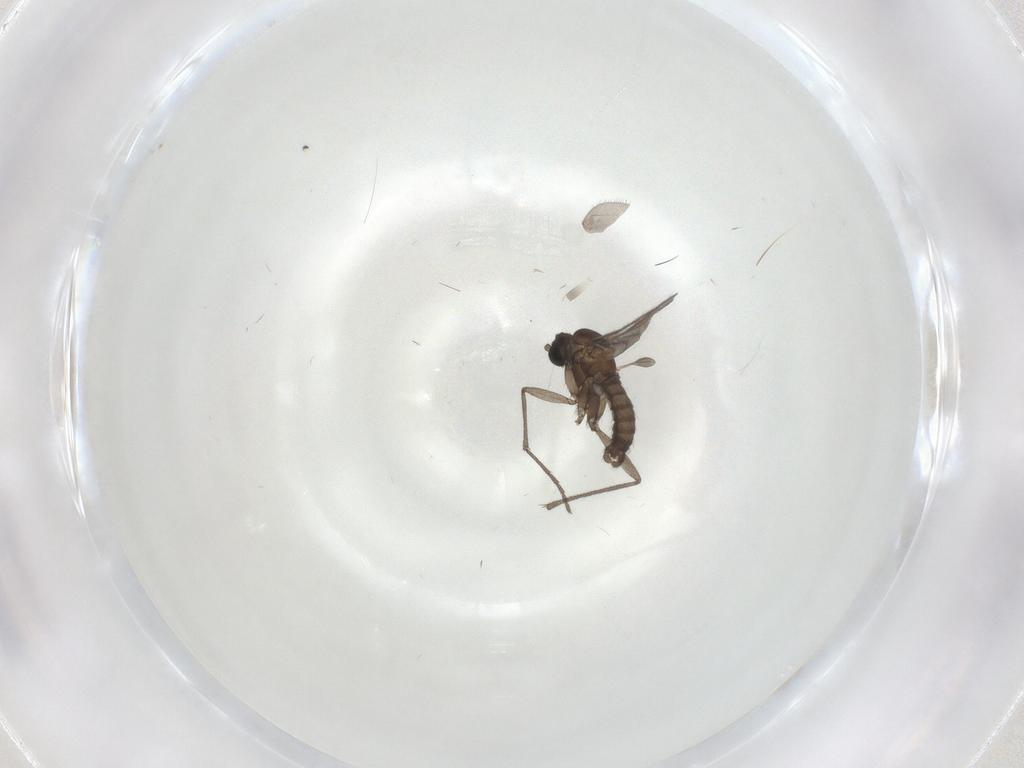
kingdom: Animalia
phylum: Arthropoda
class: Insecta
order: Diptera
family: Sciaridae
